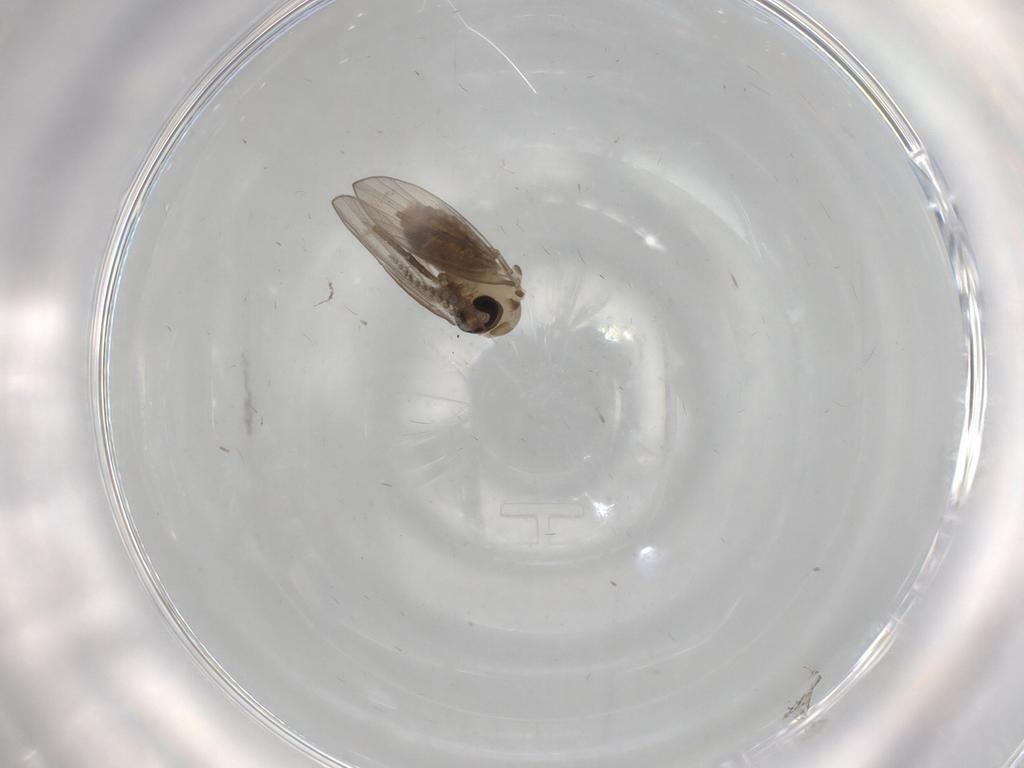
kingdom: Animalia
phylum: Arthropoda
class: Insecta
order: Diptera
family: Psychodidae
